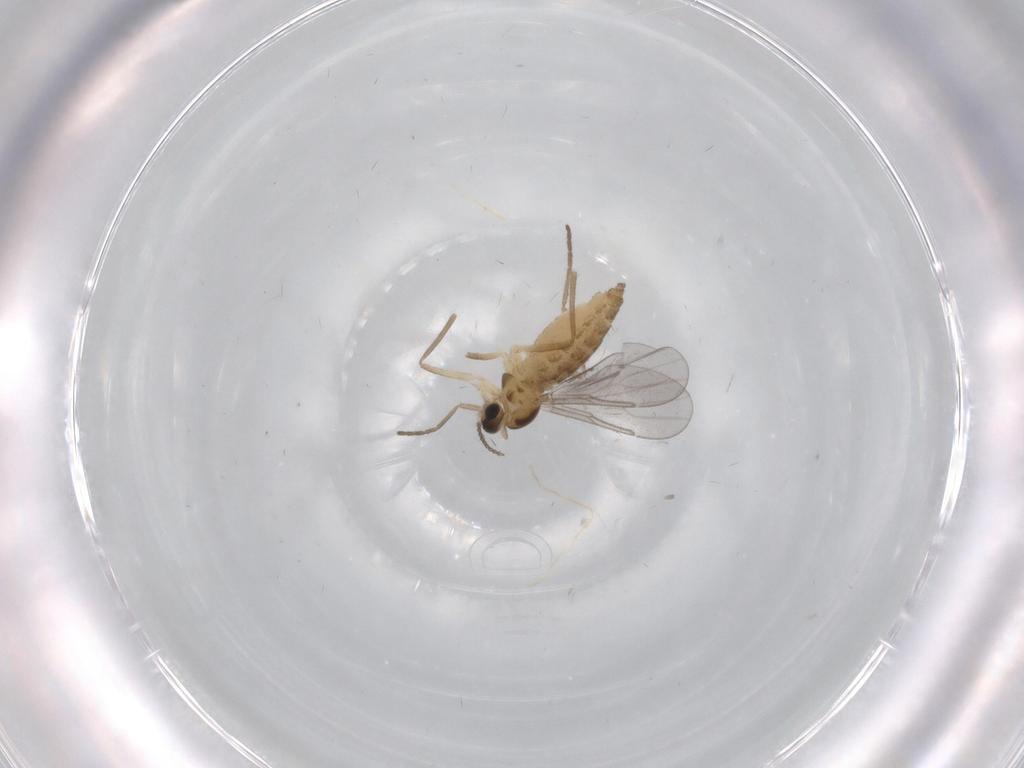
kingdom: Animalia
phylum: Arthropoda
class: Insecta
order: Diptera
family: Cecidomyiidae
